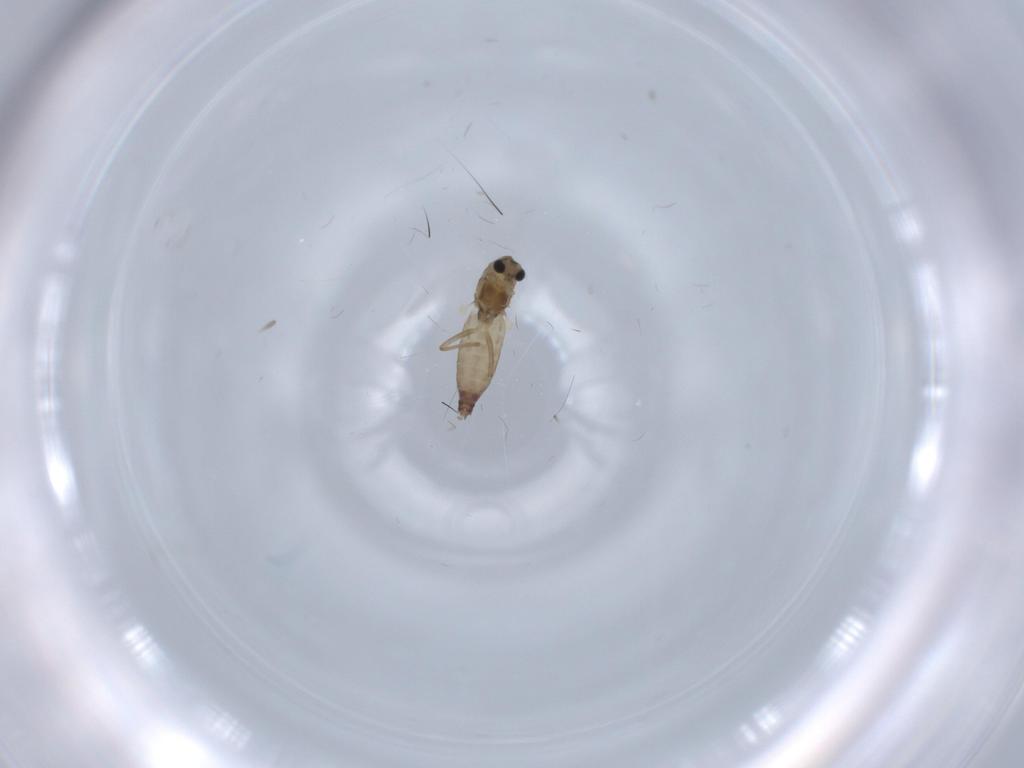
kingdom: Animalia
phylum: Arthropoda
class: Insecta
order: Diptera
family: Chironomidae
